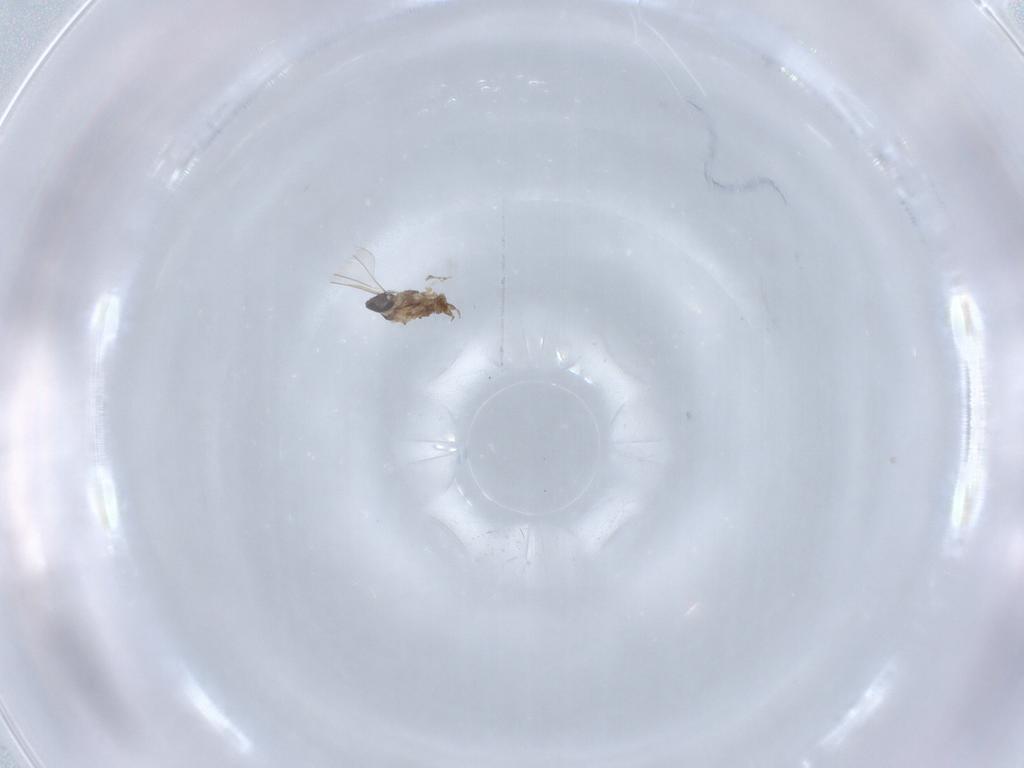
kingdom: Animalia
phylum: Arthropoda
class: Insecta
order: Diptera
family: Cecidomyiidae
